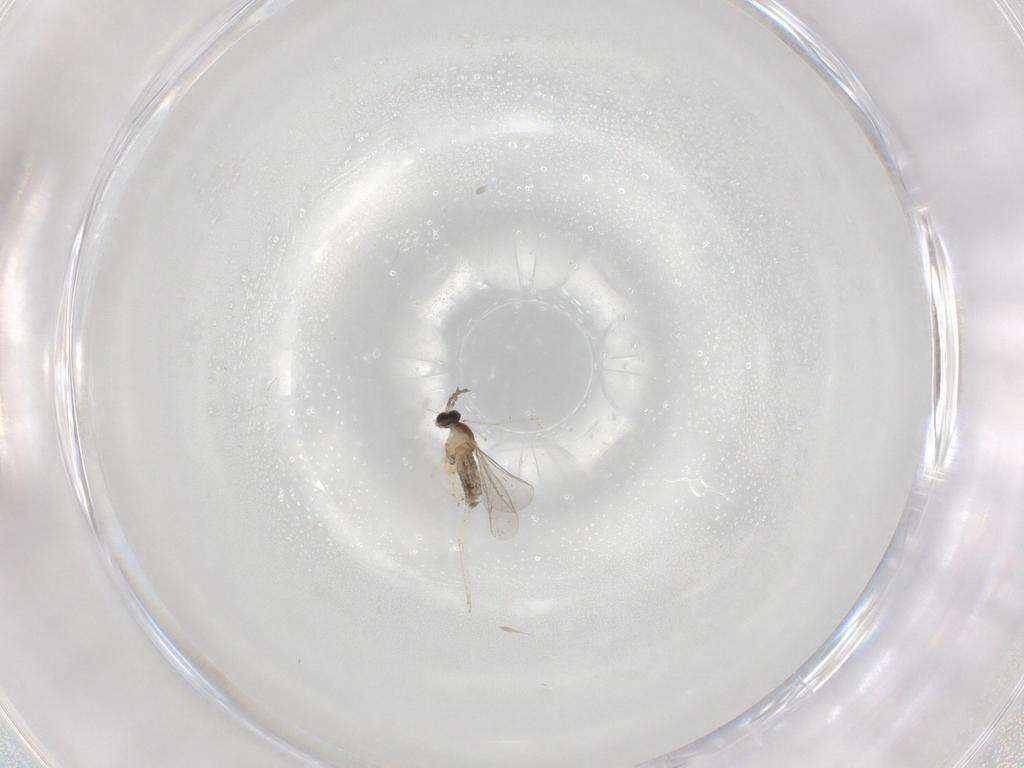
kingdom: Animalia
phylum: Arthropoda
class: Insecta
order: Diptera
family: Cecidomyiidae
